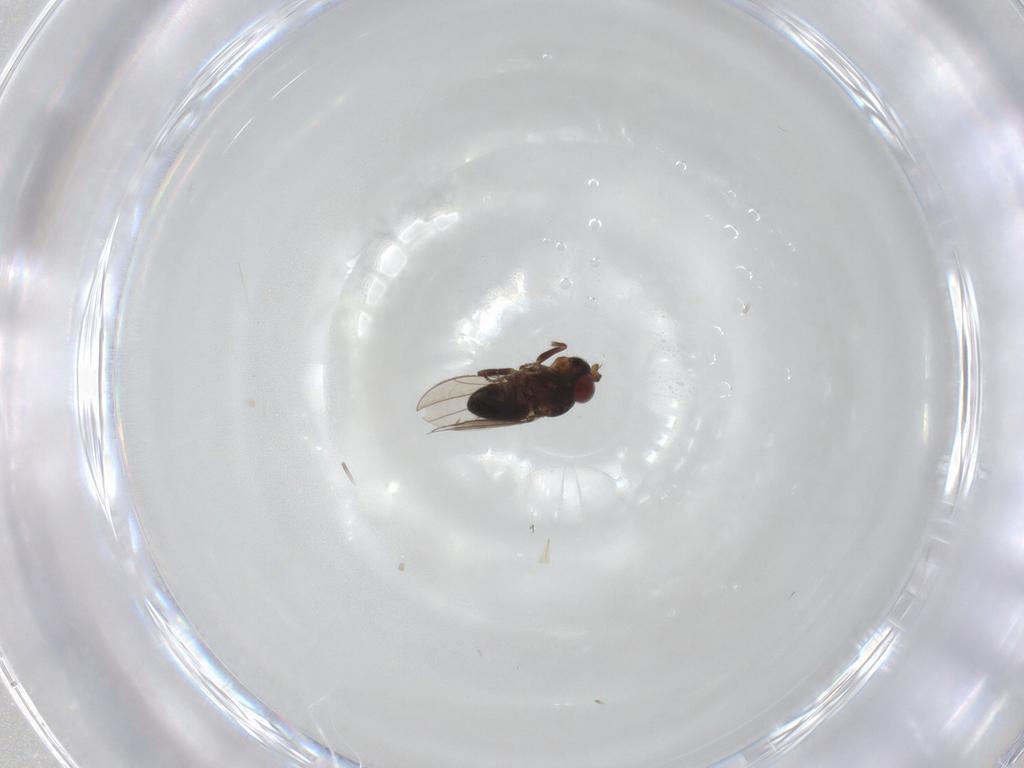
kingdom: Animalia
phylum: Arthropoda
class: Insecta
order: Diptera
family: Ephydridae
